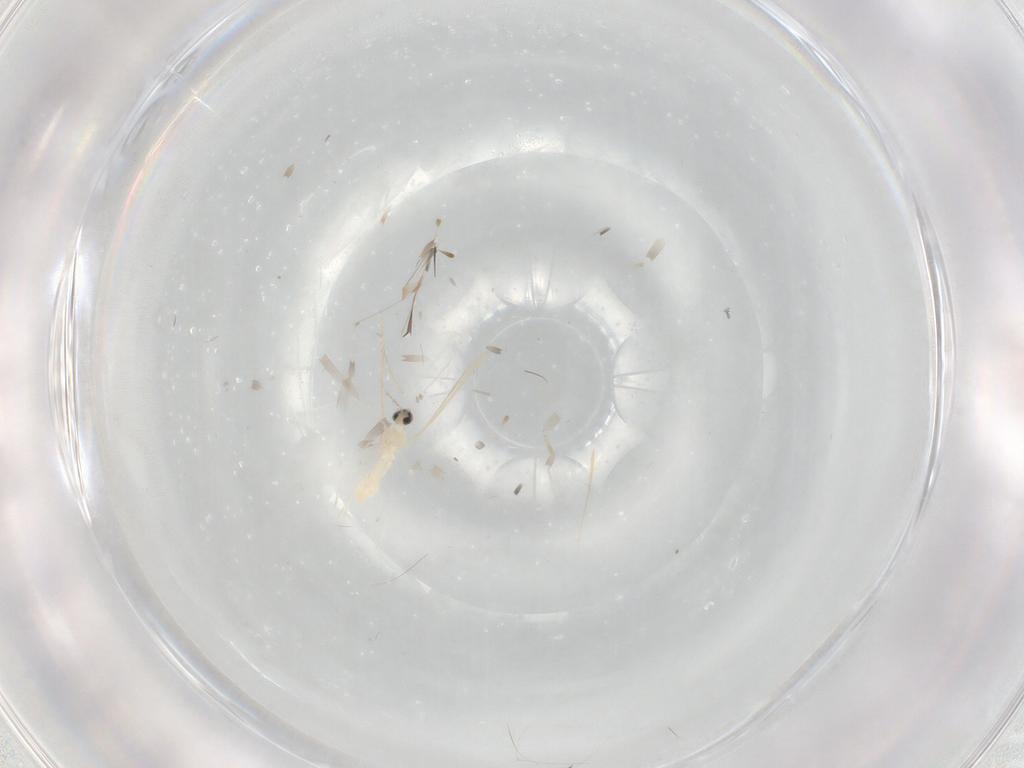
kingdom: Animalia
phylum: Arthropoda
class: Insecta
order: Diptera
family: Cecidomyiidae
